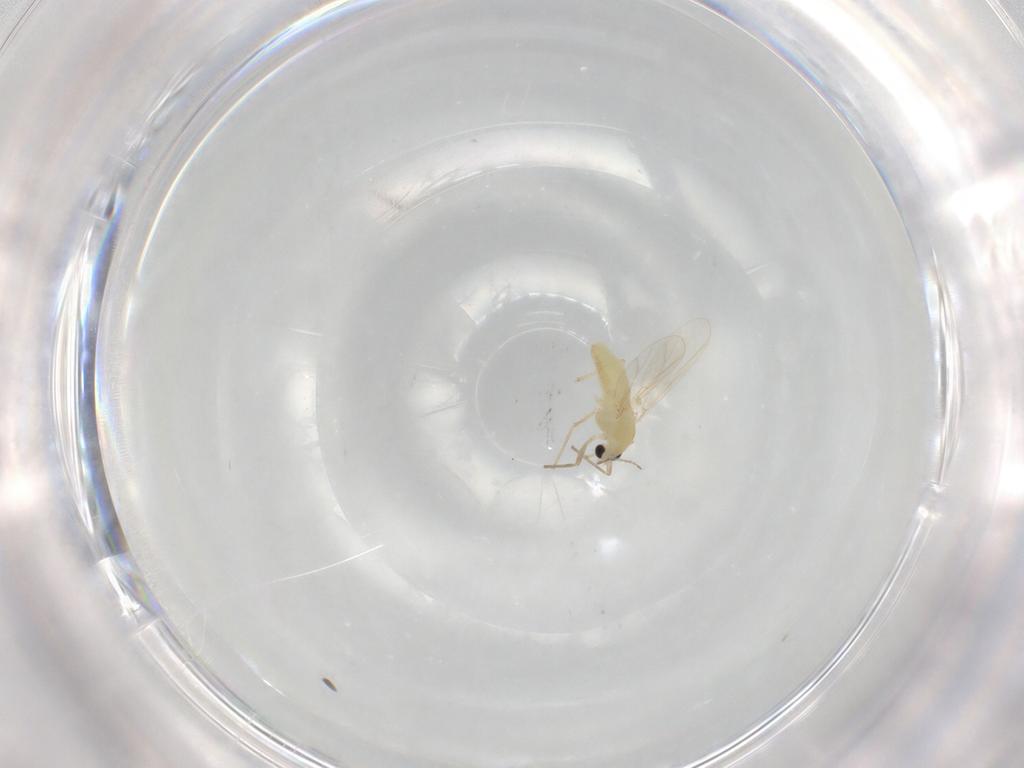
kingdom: Animalia
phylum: Arthropoda
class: Insecta
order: Diptera
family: Chironomidae
